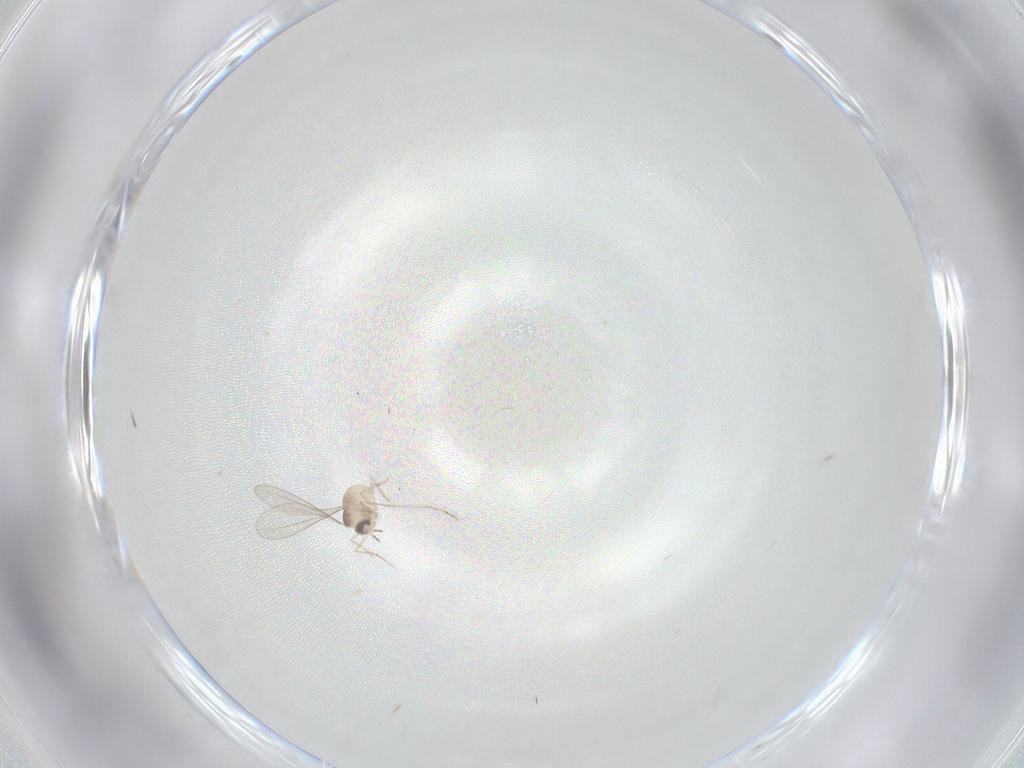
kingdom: Animalia
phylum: Arthropoda
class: Insecta
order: Diptera
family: Cecidomyiidae
